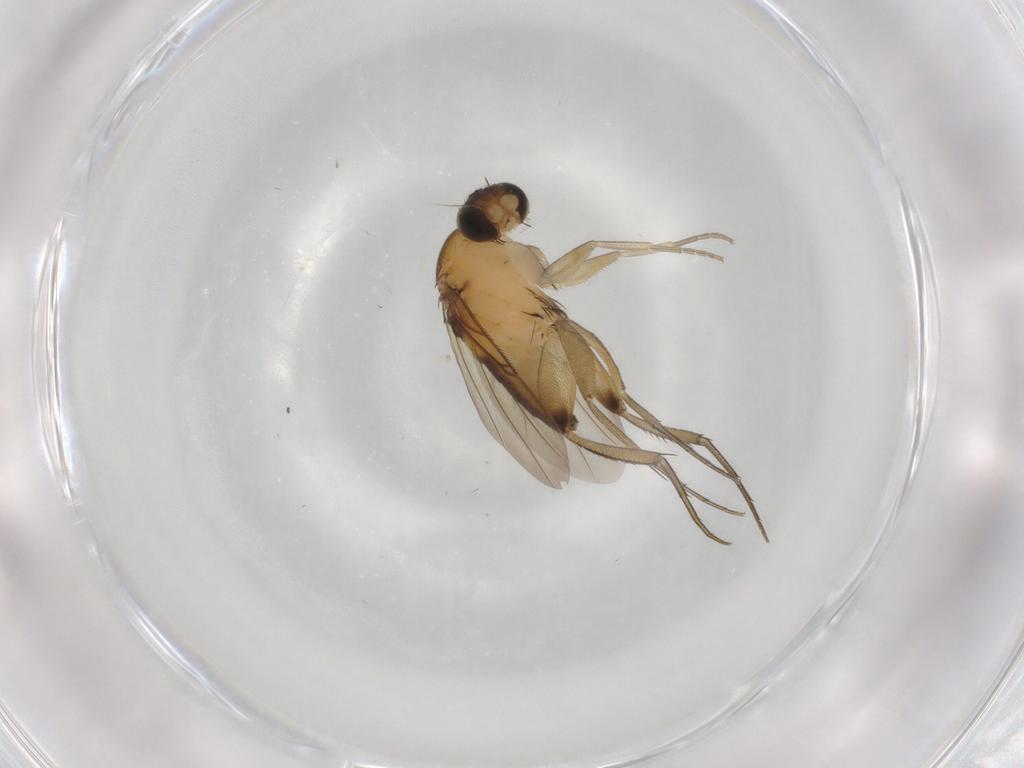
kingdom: Animalia
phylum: Arthropoda
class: Insecta
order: Diptera
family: Phoridae
